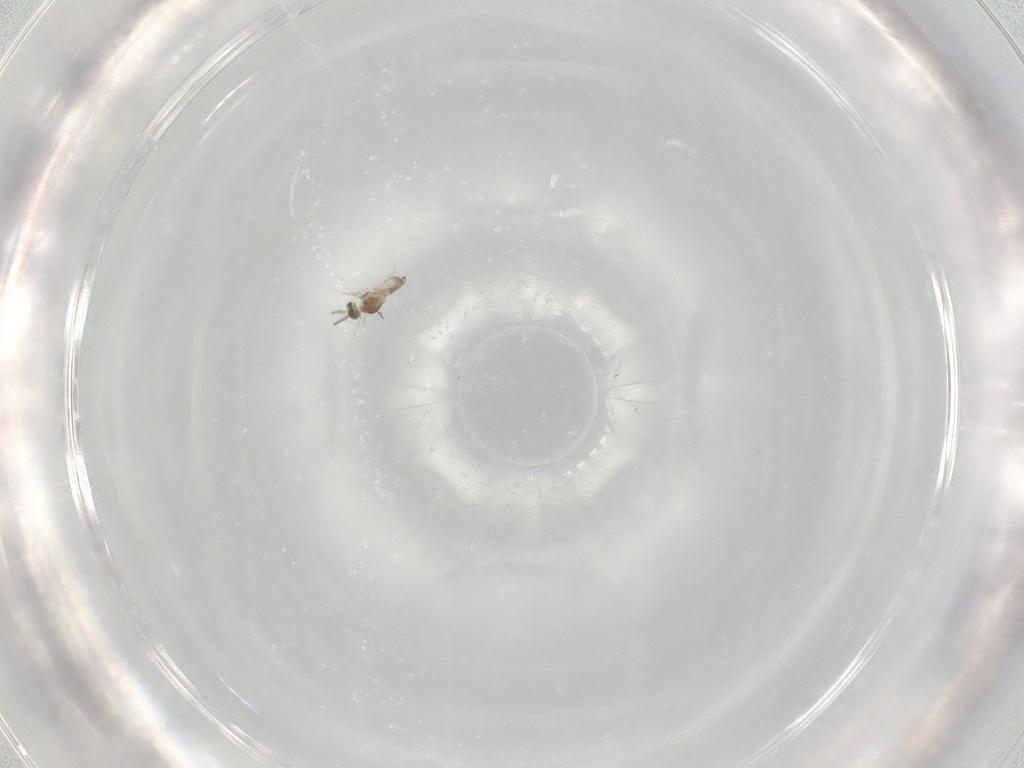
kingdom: Animalia
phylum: Arthropoda
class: Insecta
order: Diptera
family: Cecidomyiidae
